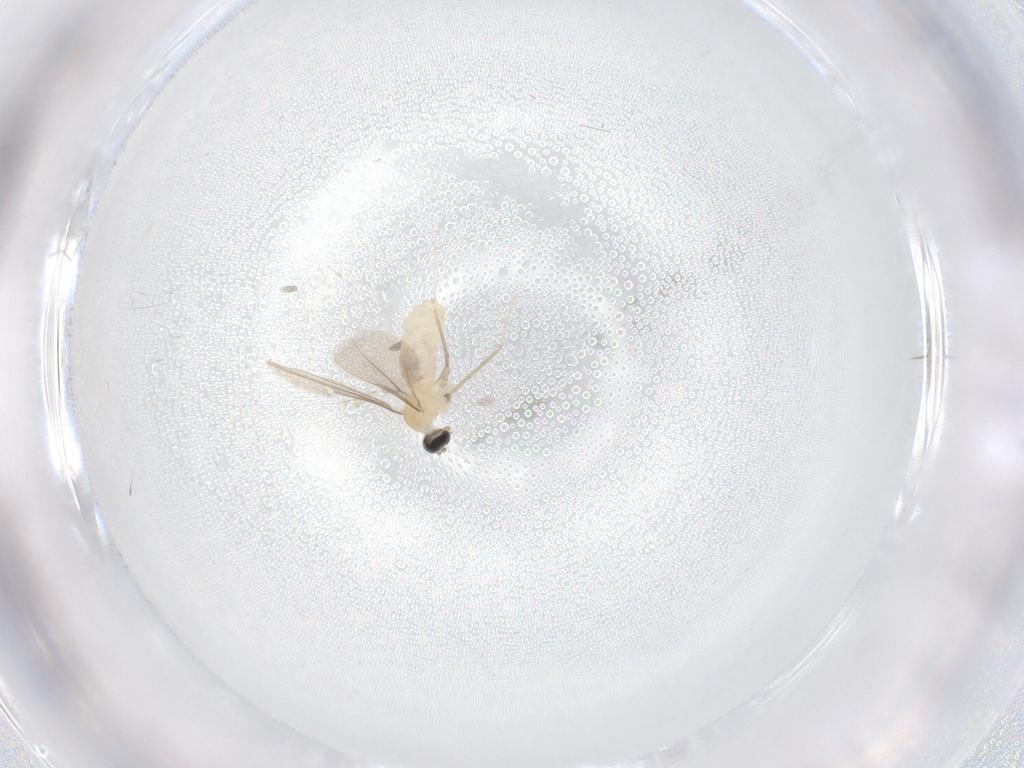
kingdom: Animalia
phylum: Arthropoda
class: Insecta
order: Diptera
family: Cecidomyiidae
